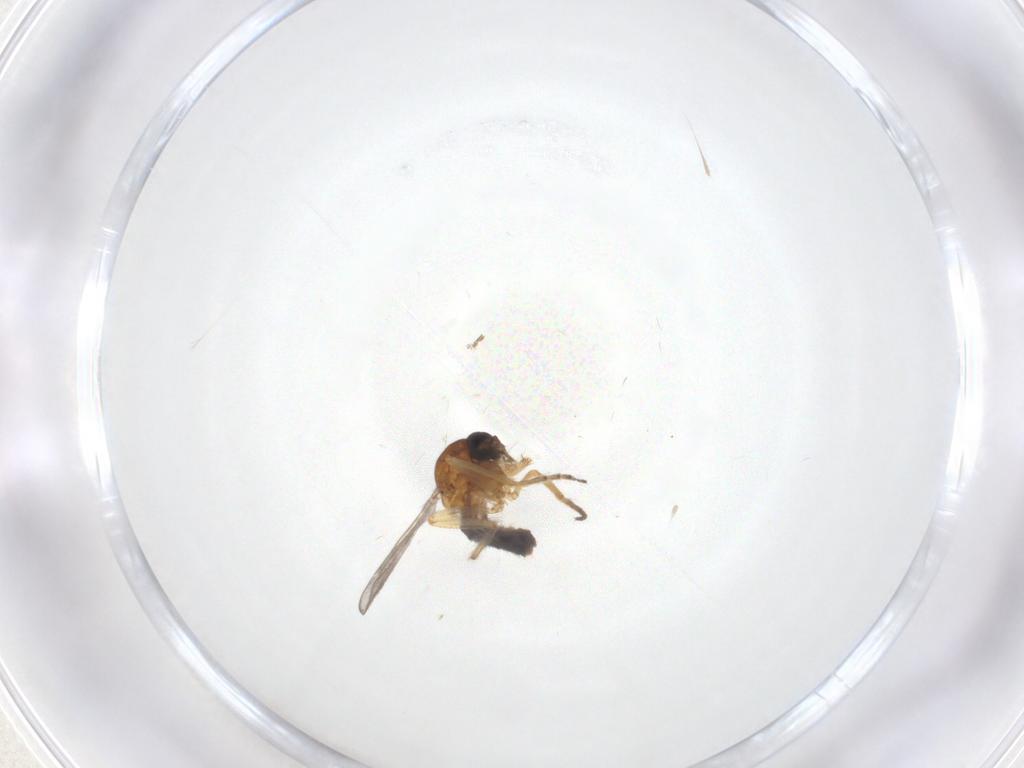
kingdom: Animalia
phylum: Arthropoda
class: Insecta
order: Diptera
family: Ceratopogonidae
